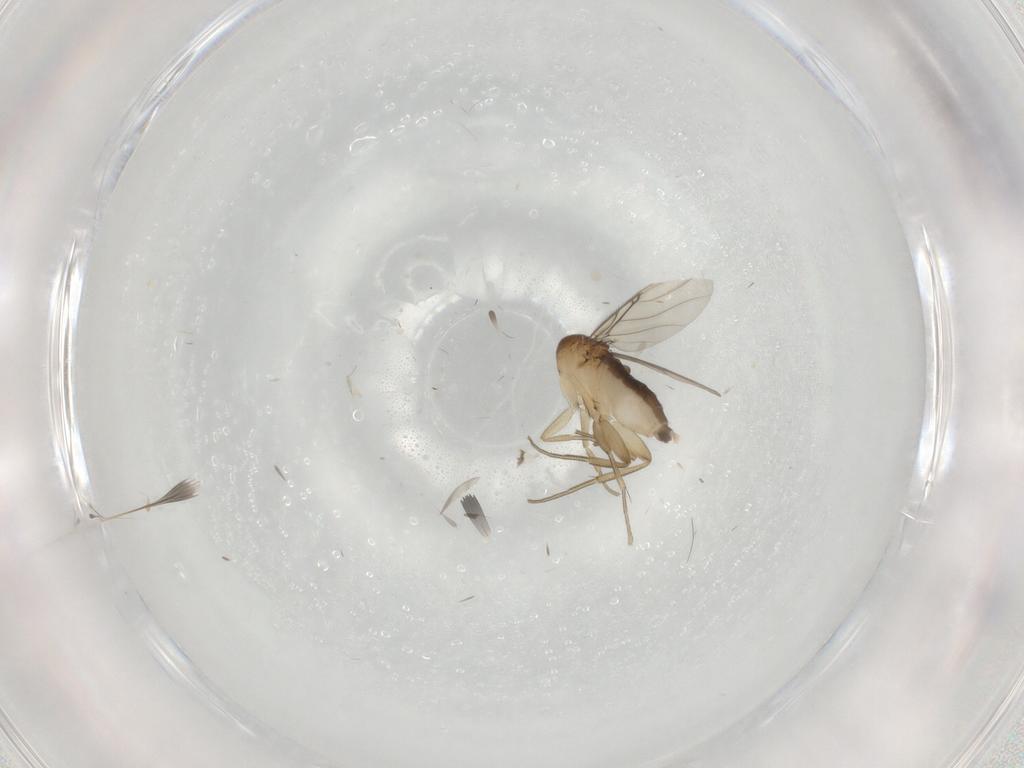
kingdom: Animalia
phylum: Arthropoda
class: Insecta
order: Diptera
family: Phoridae
